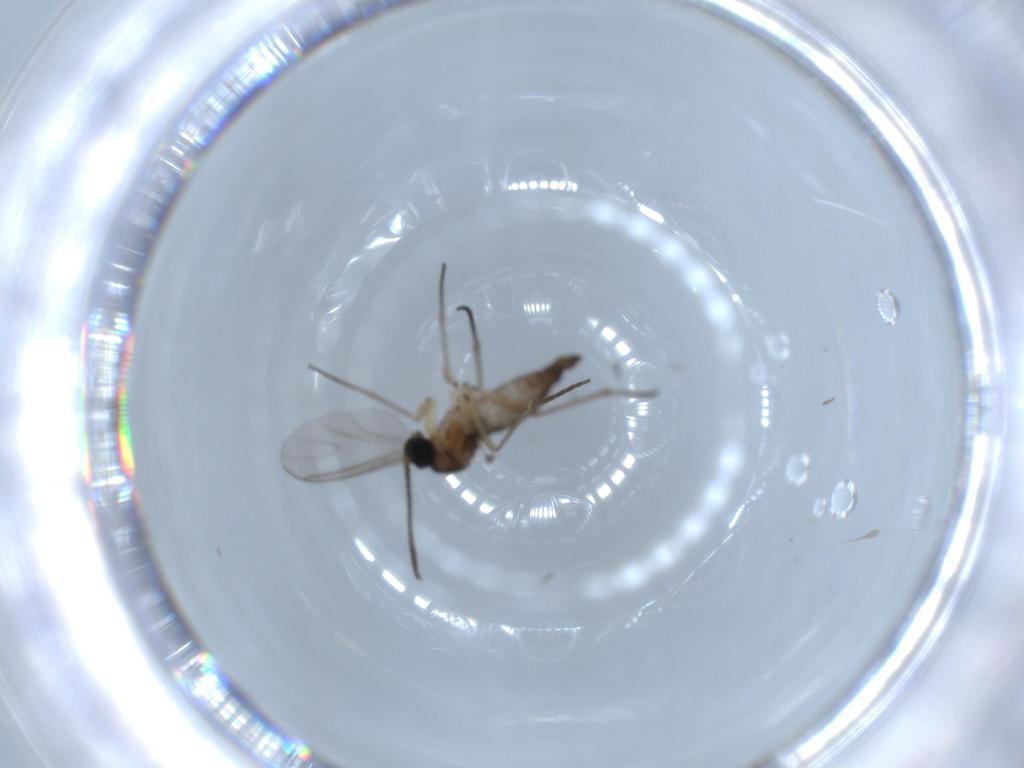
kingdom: Animalia
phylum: Arthropoda
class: Insecta
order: Diptera
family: Sciaridae
